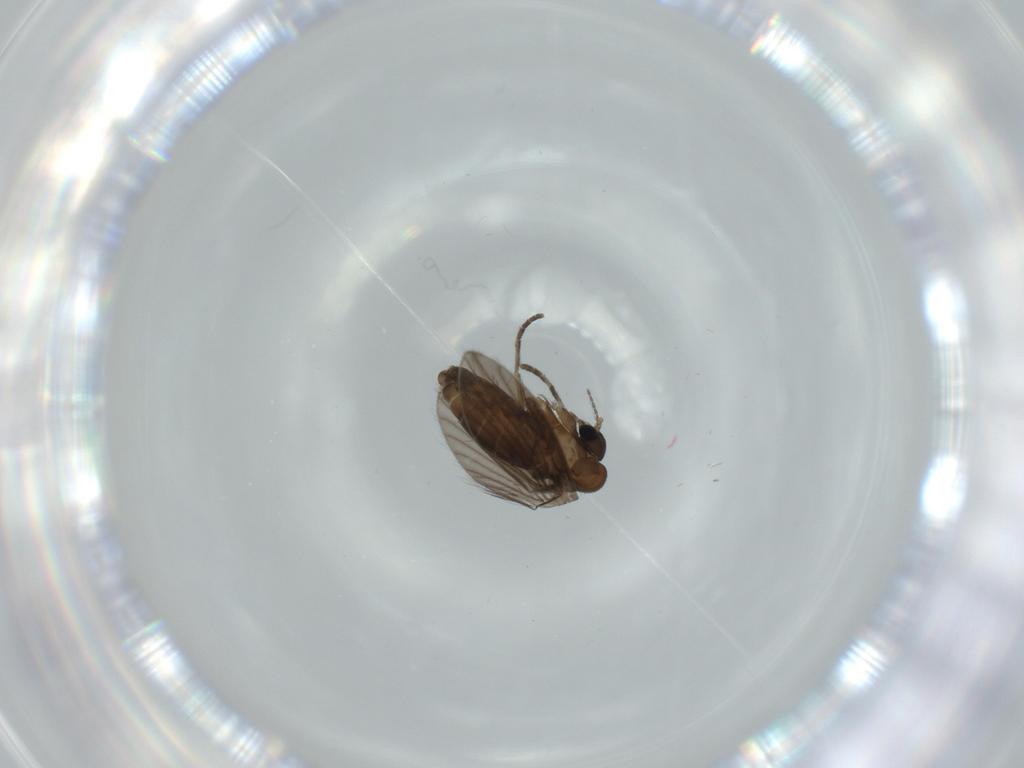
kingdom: Animalia
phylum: Arthropoda
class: Insecta
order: Diptera
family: Psychodidae
